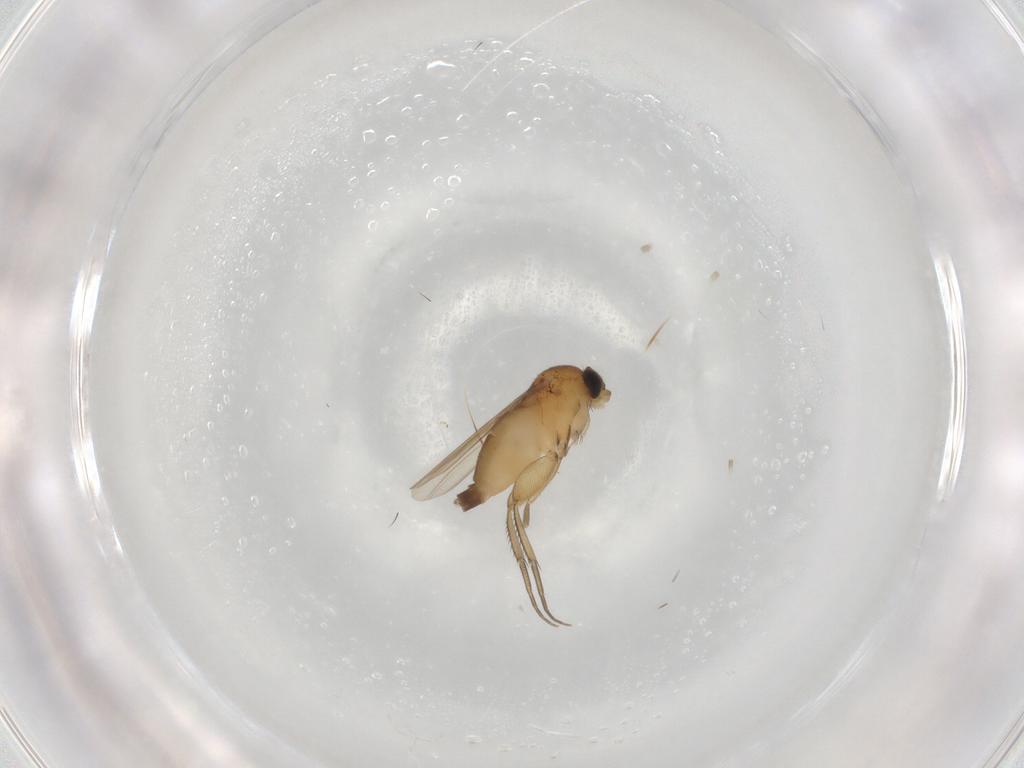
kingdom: Animalia
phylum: Arthropoda
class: Insecta
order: Diptera
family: Phoridae
